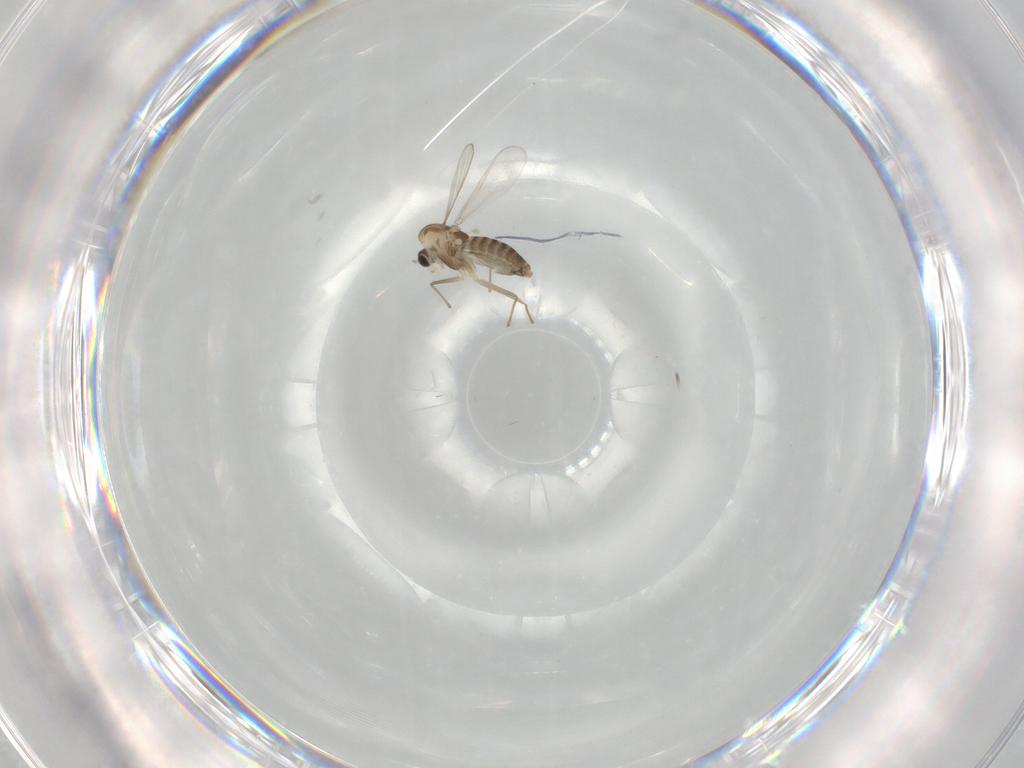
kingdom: Animalia
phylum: Arthropoda
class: Insecta
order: Diptera
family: Chironomidae
